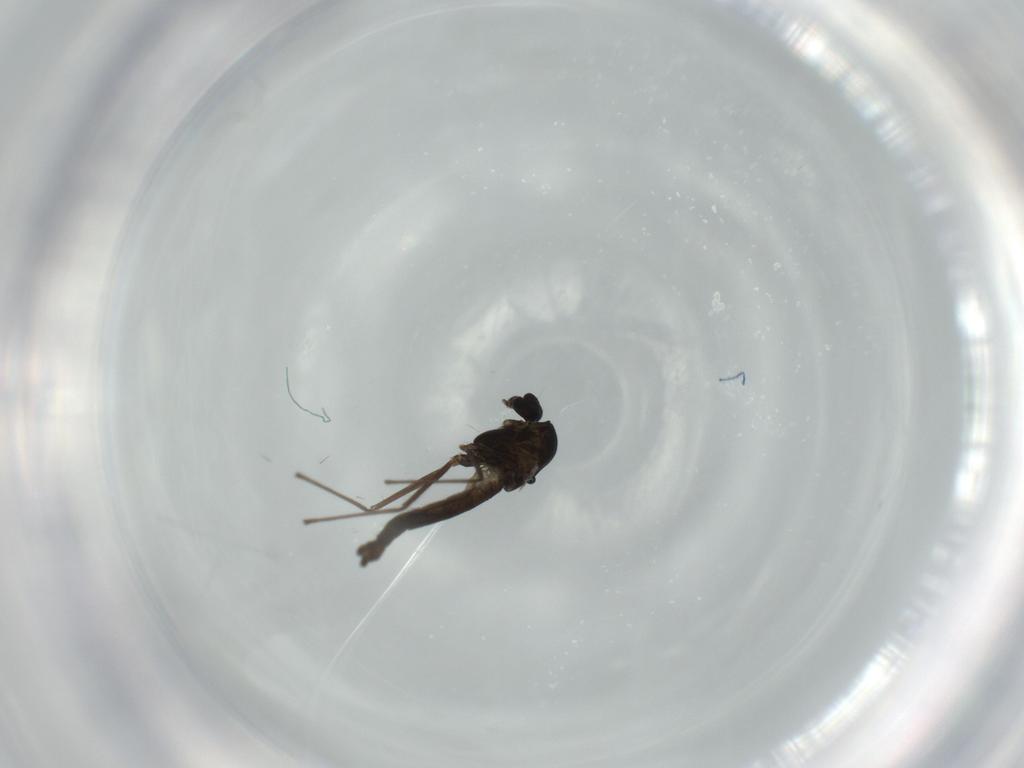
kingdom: Animalia
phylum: Arthropoda
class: Insecta
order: Diptera
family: Chironomidae
